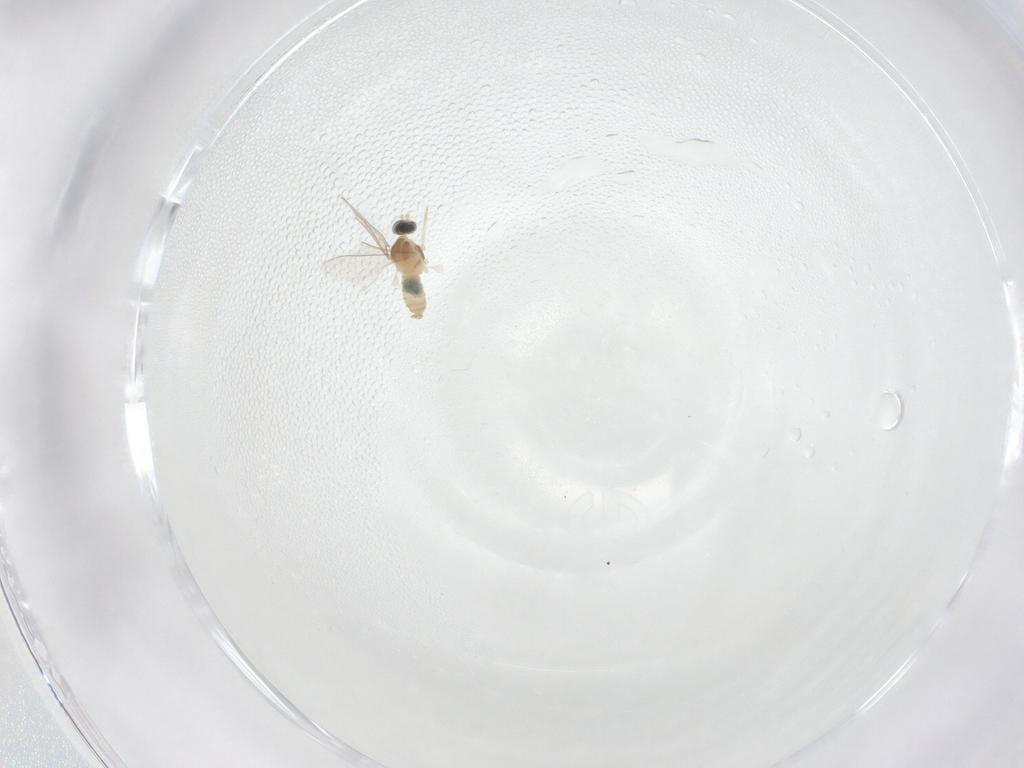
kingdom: Animalia
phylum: Arthropoda
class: Insecta
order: Diptera
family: Cecidomyiidae
